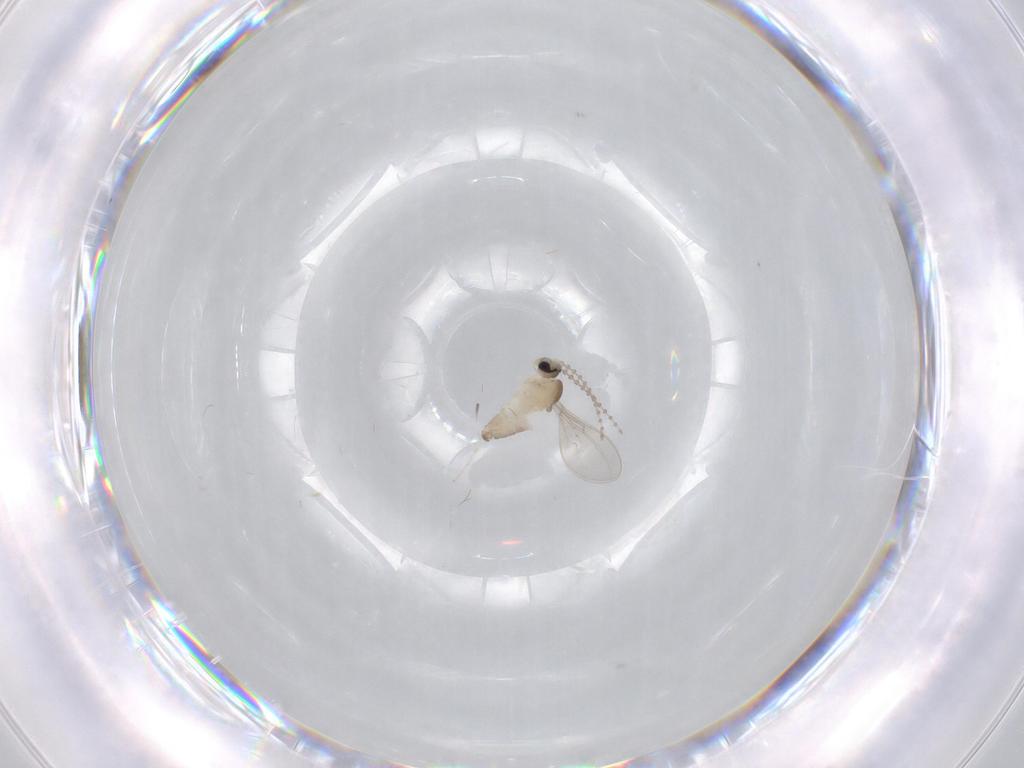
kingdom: Animalia
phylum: Arthropoda
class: Insecta
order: Diptera
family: Cecidomyiidae
